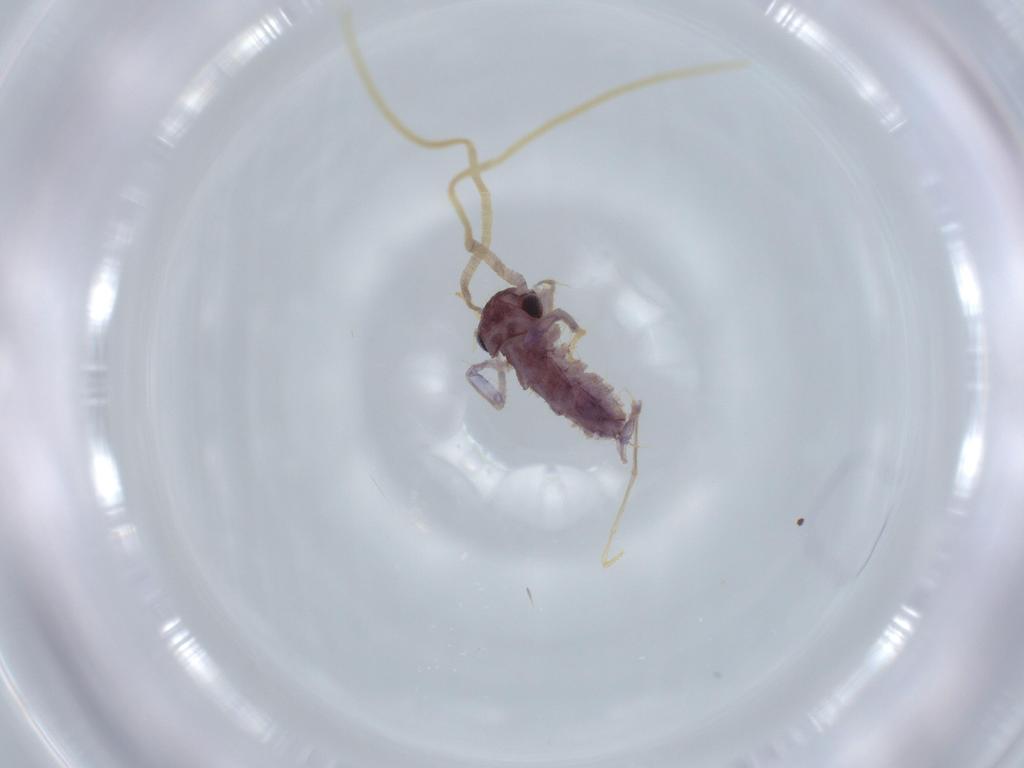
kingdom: Animalia
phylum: Arthropoda
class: Chilopoda
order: Scutigeromorpha
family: Scutigeridae
